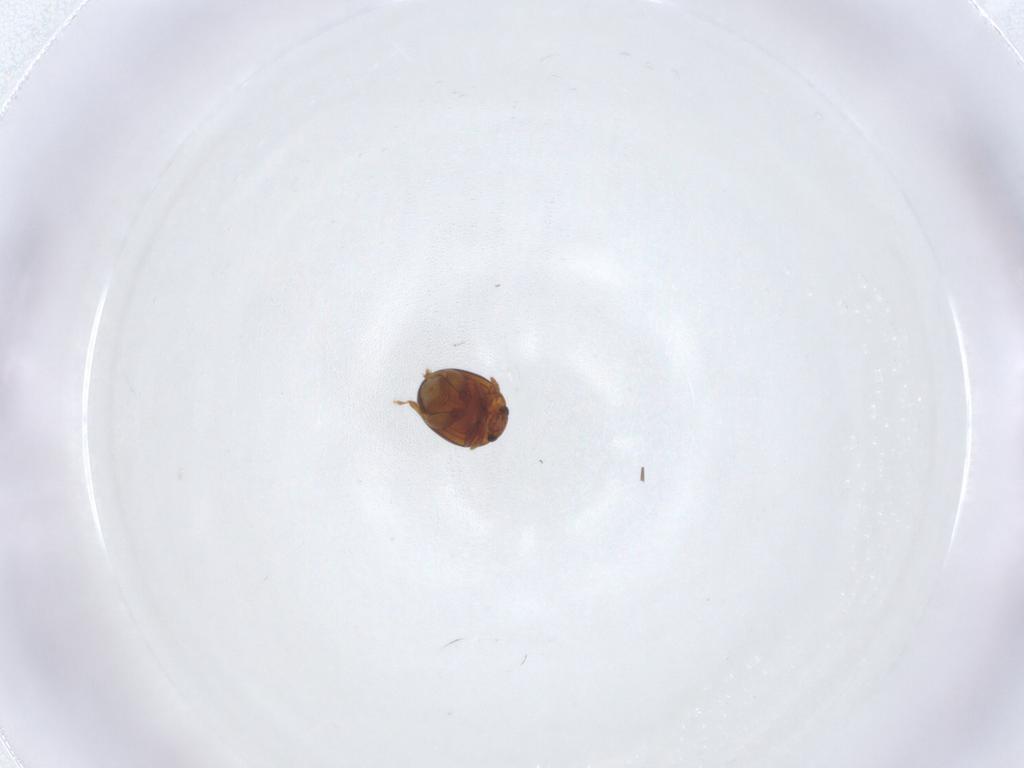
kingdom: Animalia
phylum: Arthropoda
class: Insecta
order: Coleoptera
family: Chrysomelidae
